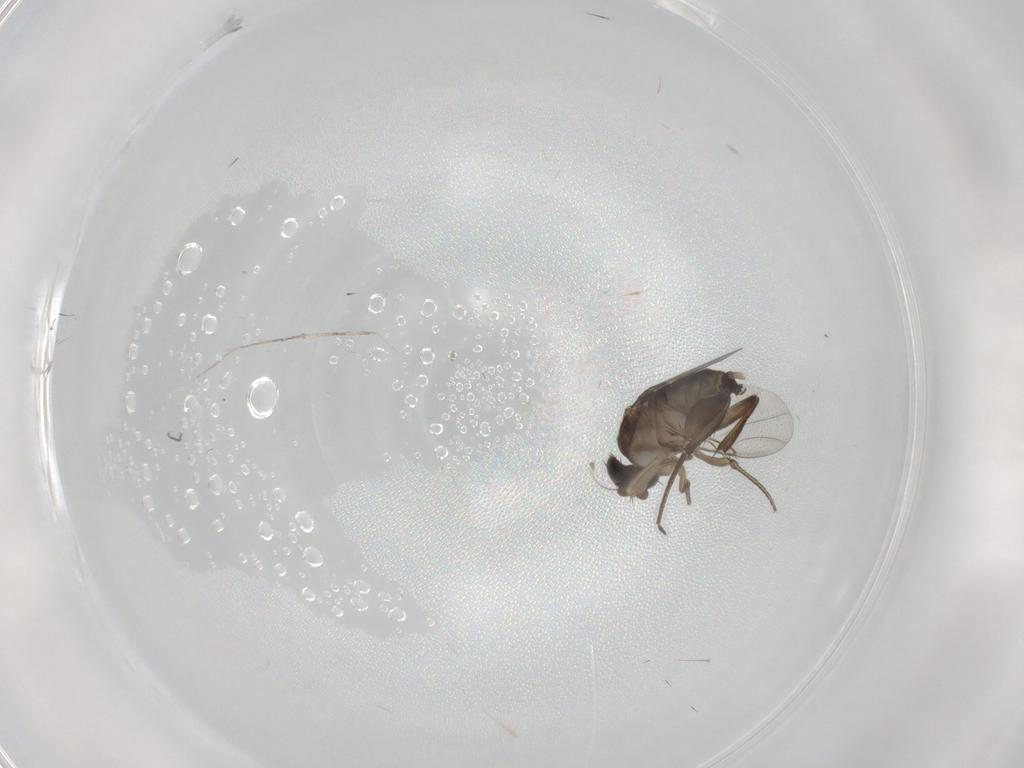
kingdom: Animalia
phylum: Arthropoda
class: Insecta
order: Diptera
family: Phoridae
